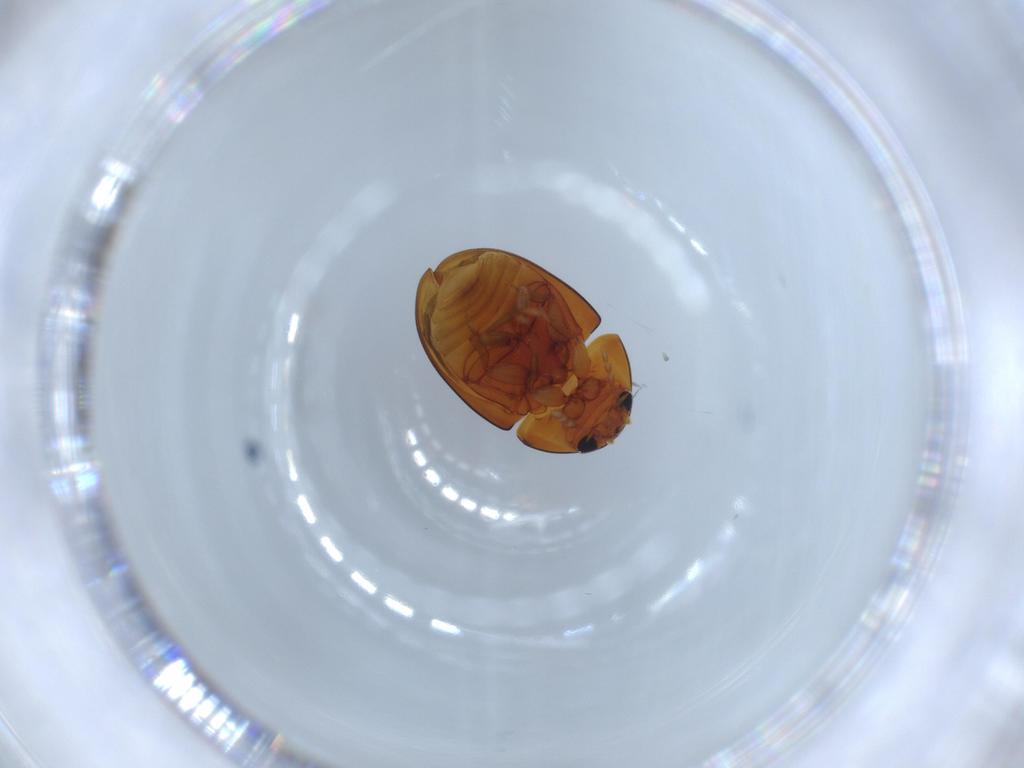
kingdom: Animalia
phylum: Arthropoda
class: Insecta
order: Coleoptera
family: Phalacridae
